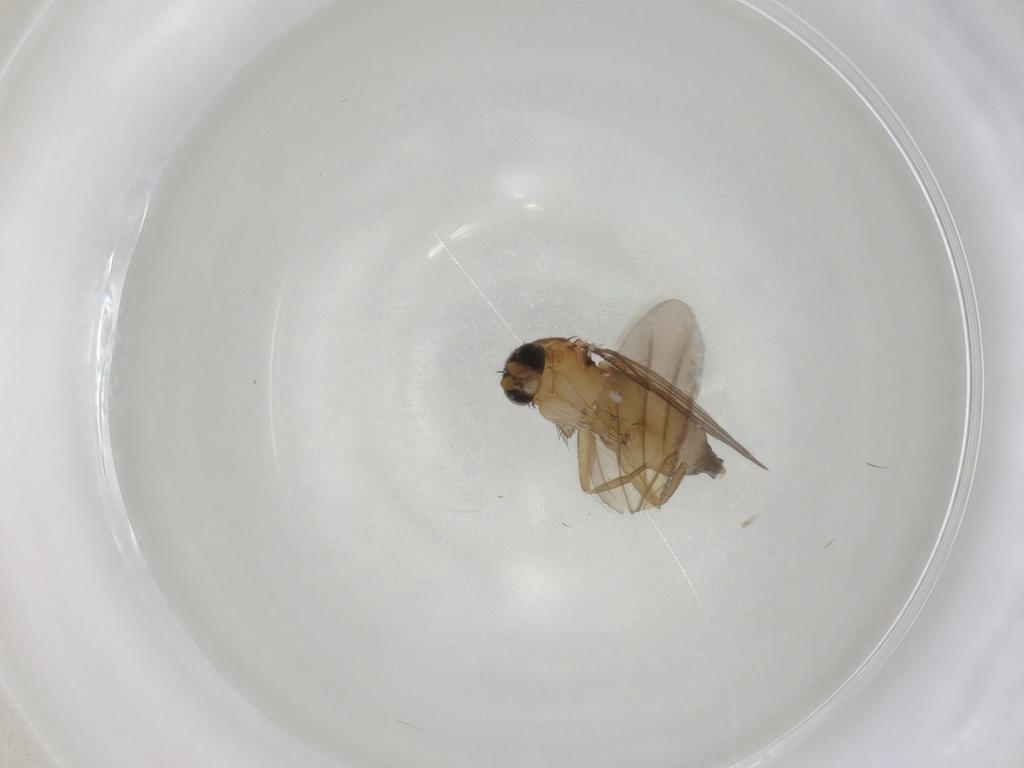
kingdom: Animalia
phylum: Arthropoda
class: Insecta
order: Diptera
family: Phoridae
